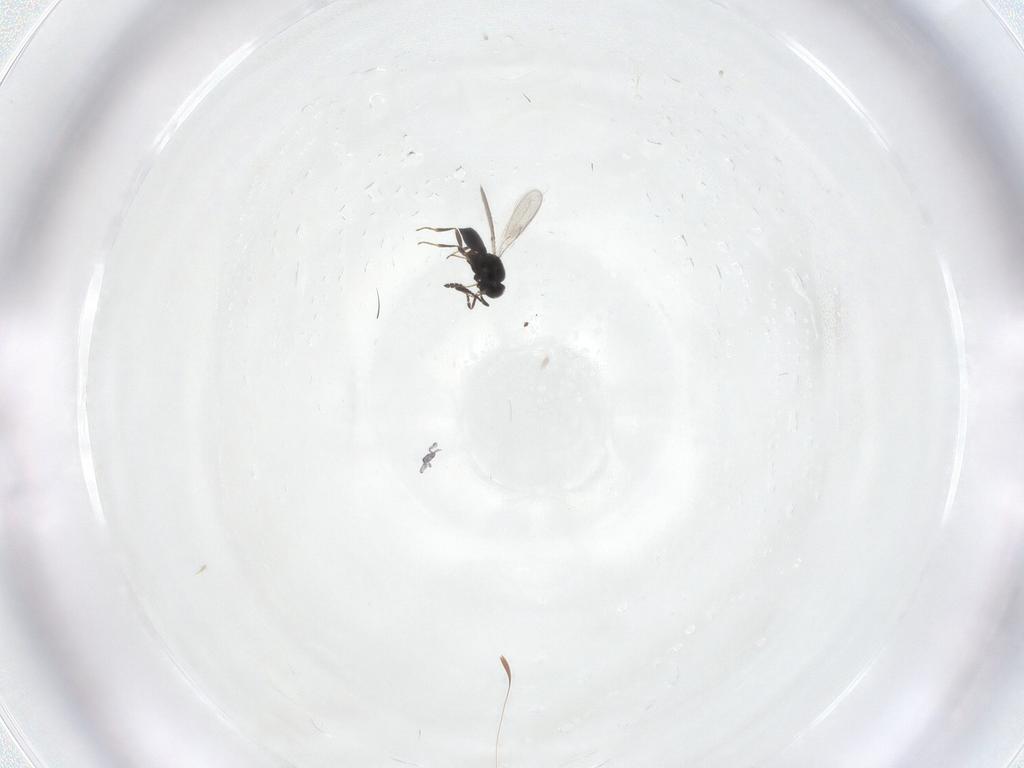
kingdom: Animalia
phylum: Arthropoda
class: Insecta
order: Hymenoptera
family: Scelionidae
